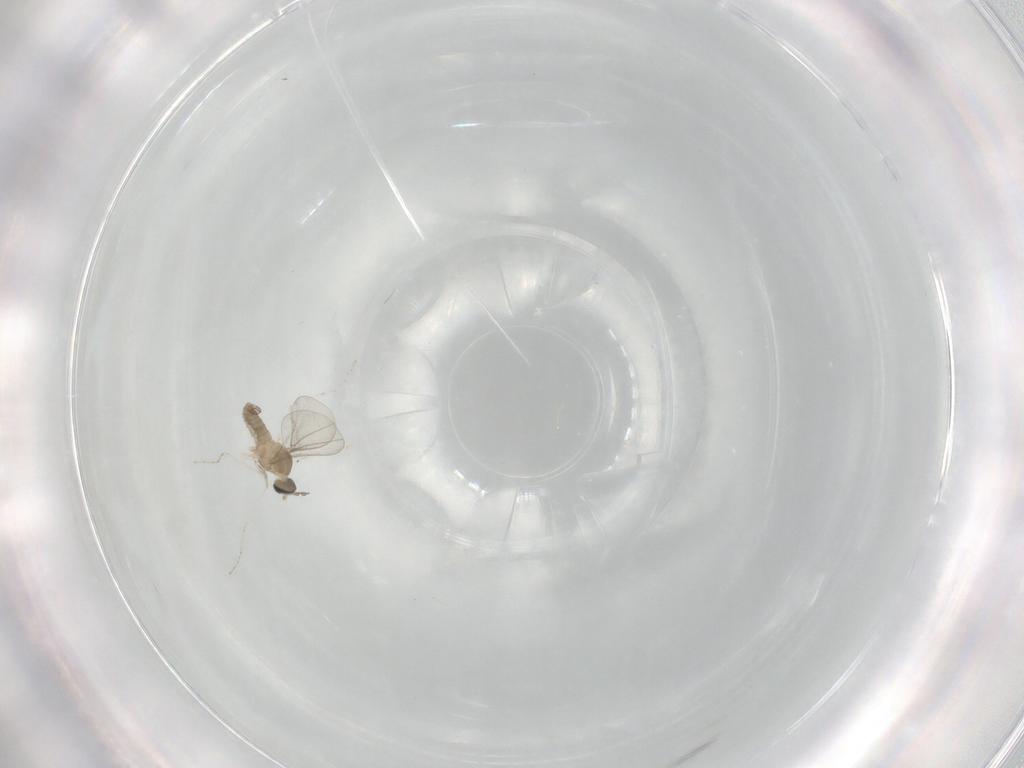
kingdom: Animalia
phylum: Arthropoda
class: Insecta
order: Diptera
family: Cecidomyiidae
